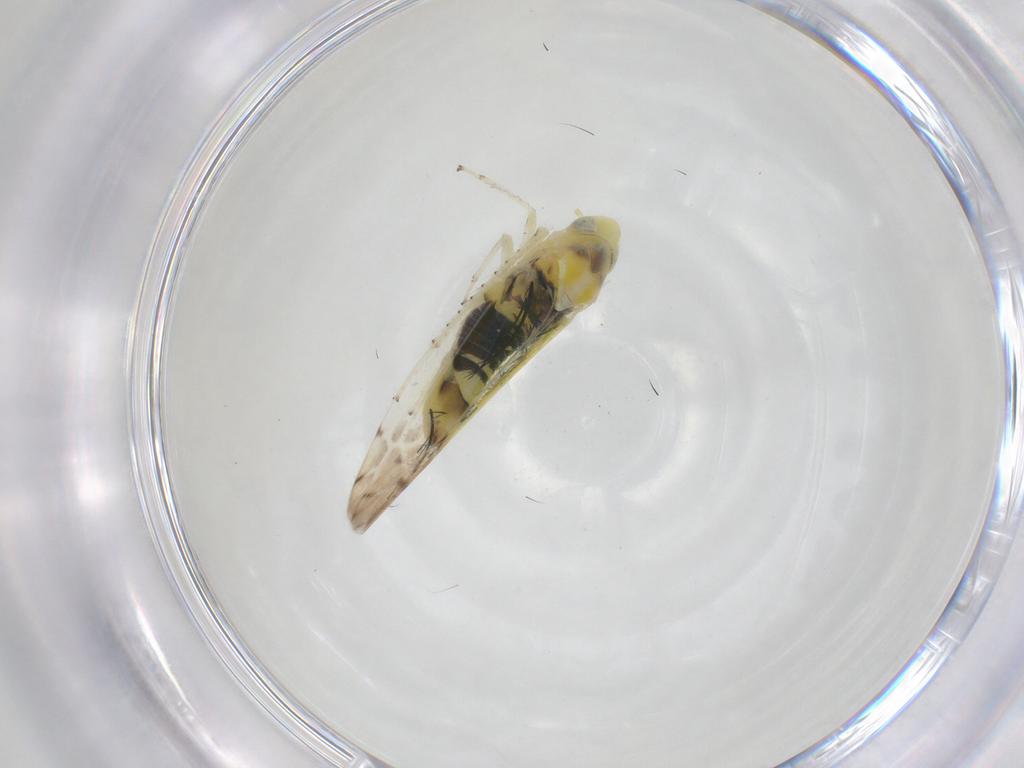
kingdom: Animalia
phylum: Arthropoda
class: Insecta
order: Hemiptera
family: Cicadellidae
